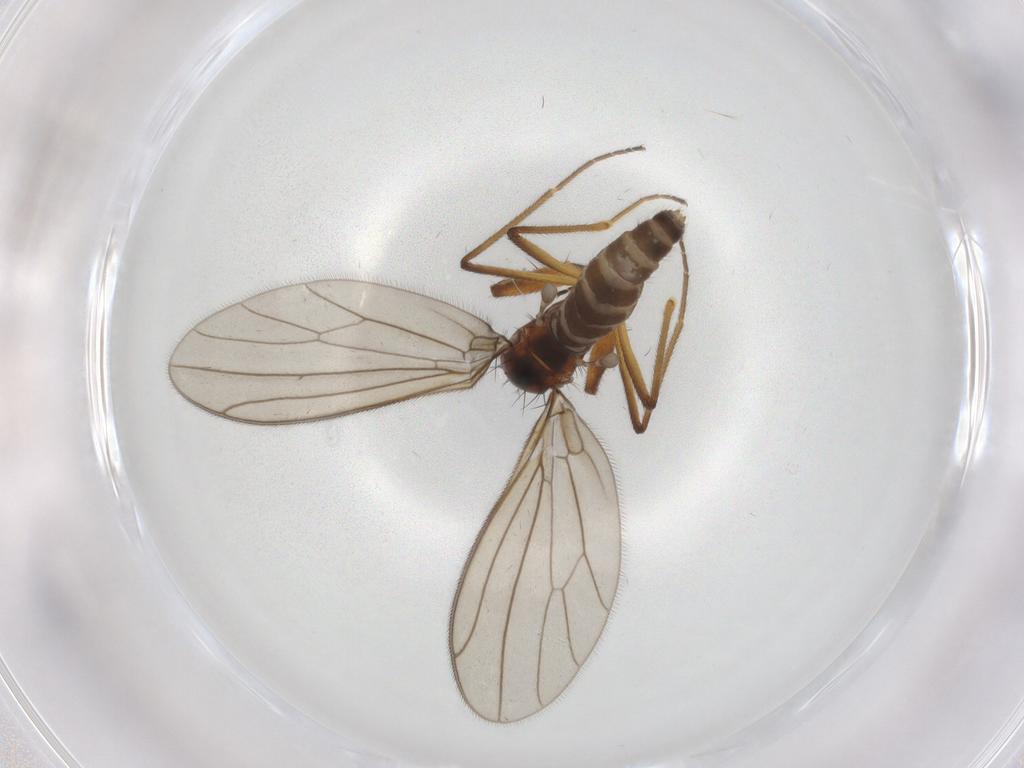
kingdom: Animalia
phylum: Arthropoda
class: Insecta
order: Diptera
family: Empididae
